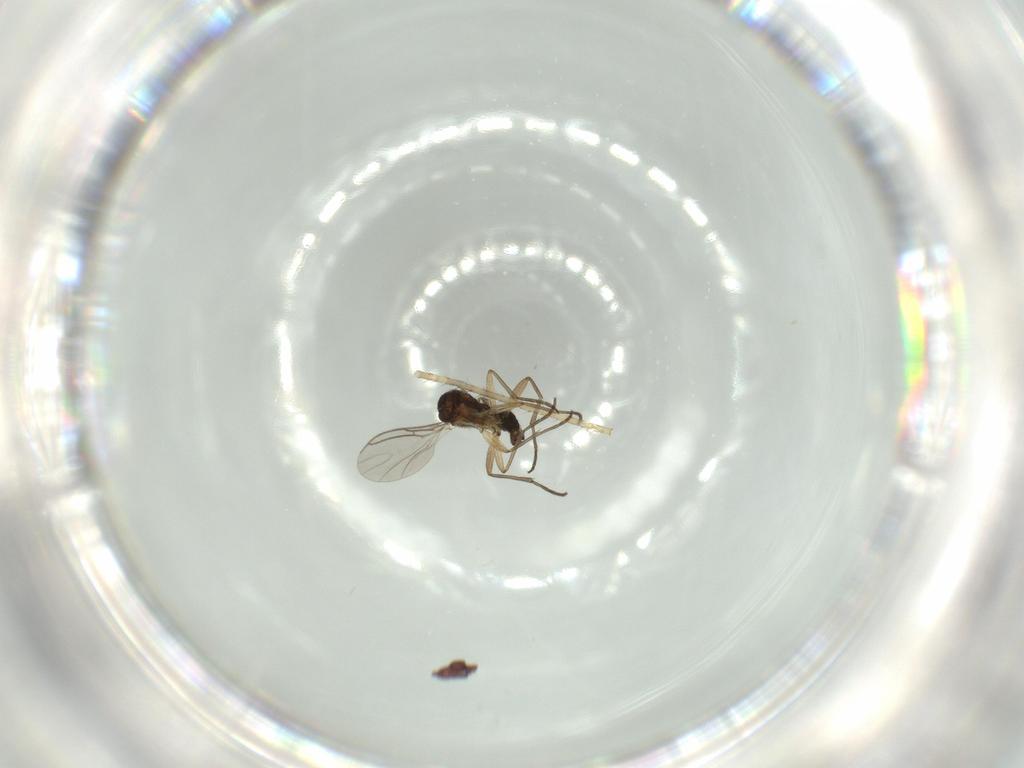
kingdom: Animalia
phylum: Arthropoda
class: Insecta
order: Diptera
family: Sciaridae
